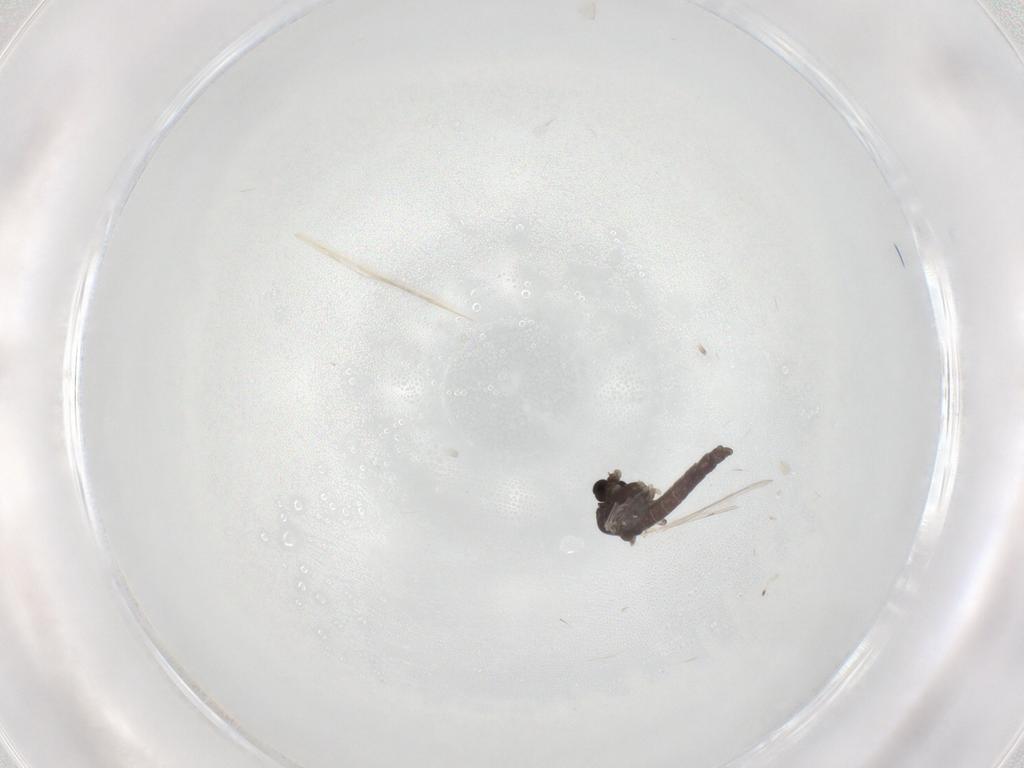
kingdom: Animalia
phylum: Arthropoda
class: Insecta
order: Diptera
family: Chironomidae
